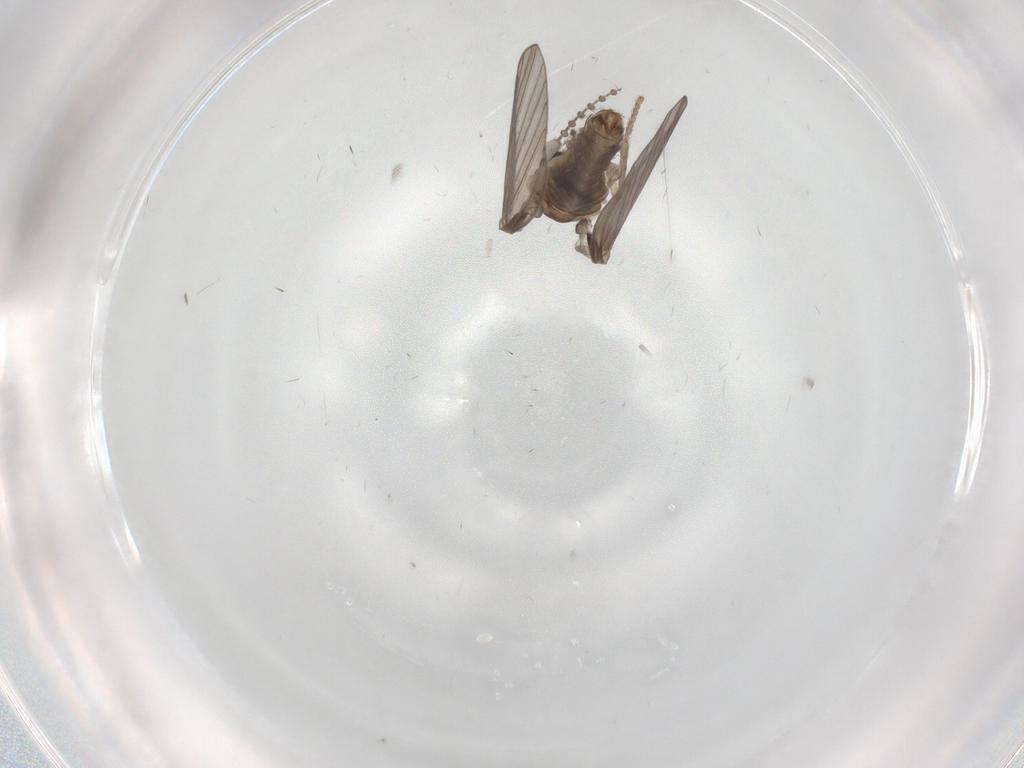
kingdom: Animalia
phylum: Arthropoda
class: Insecta
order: Diptera
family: Psychodidae
